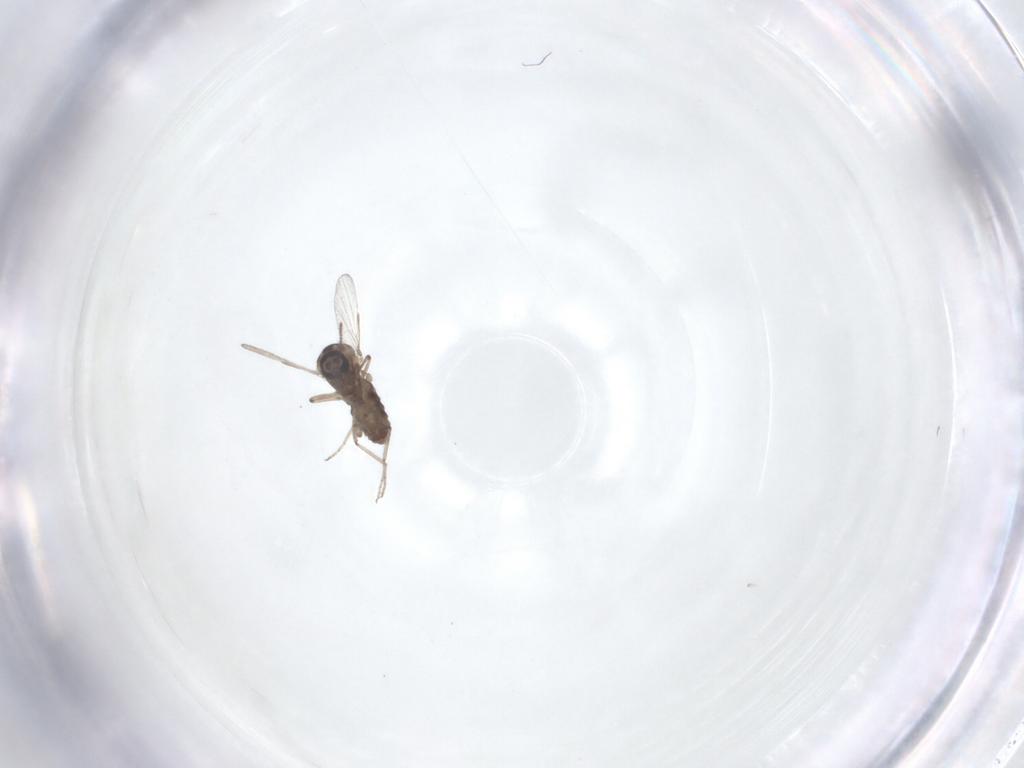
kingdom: Animalia
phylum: Arthropoda
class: Insecta
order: Diptera
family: Ceratopogonidae
